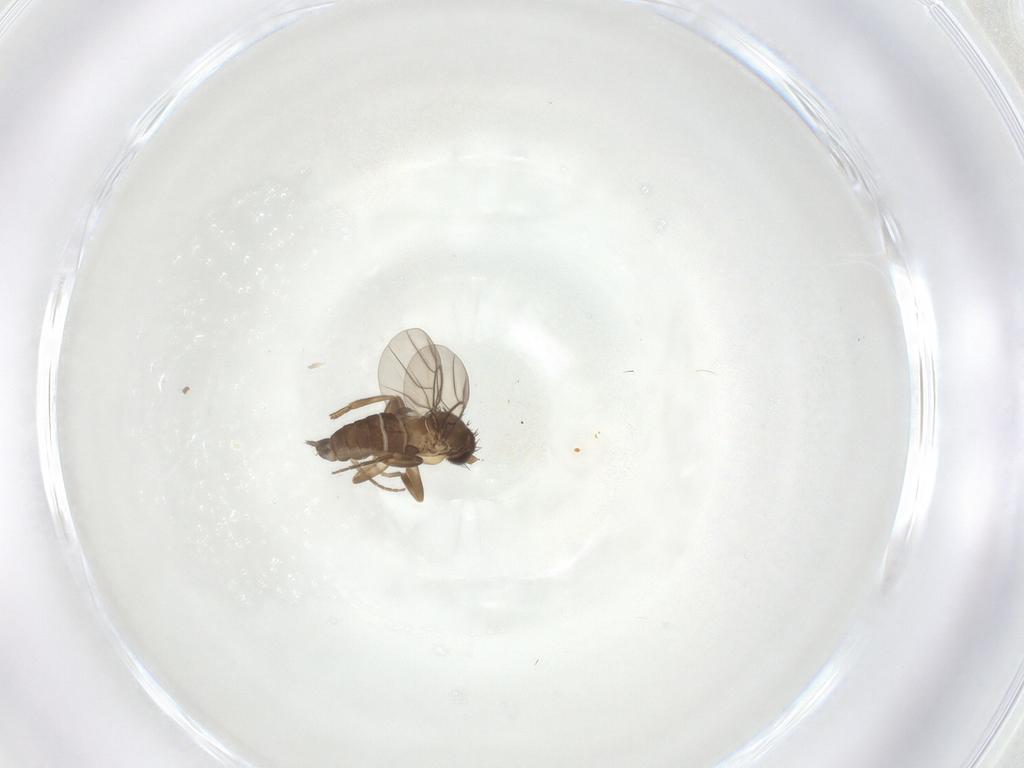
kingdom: Animalia
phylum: Arthropoda
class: Insecta
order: Diptera
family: Phoridae
